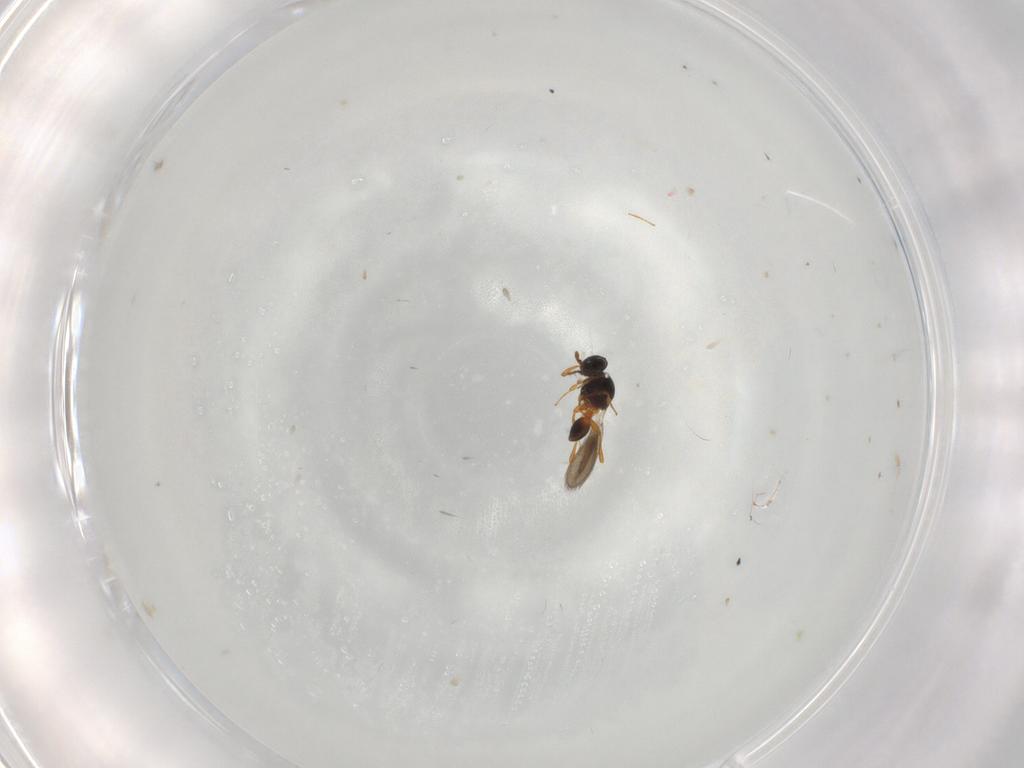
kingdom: Animalia
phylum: Arthropoda
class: Insecta
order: Hymenoptera
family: Platygastridae
